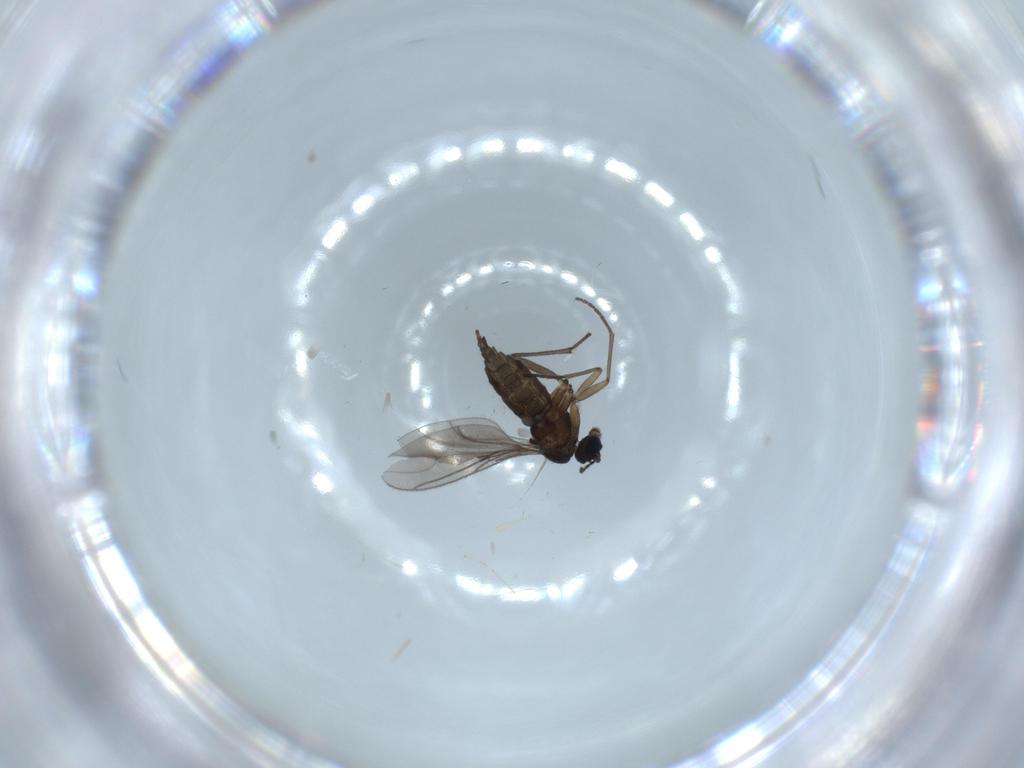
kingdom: Animalia
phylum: Arthropoda
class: Insecta
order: Diptera
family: Sciaridae
